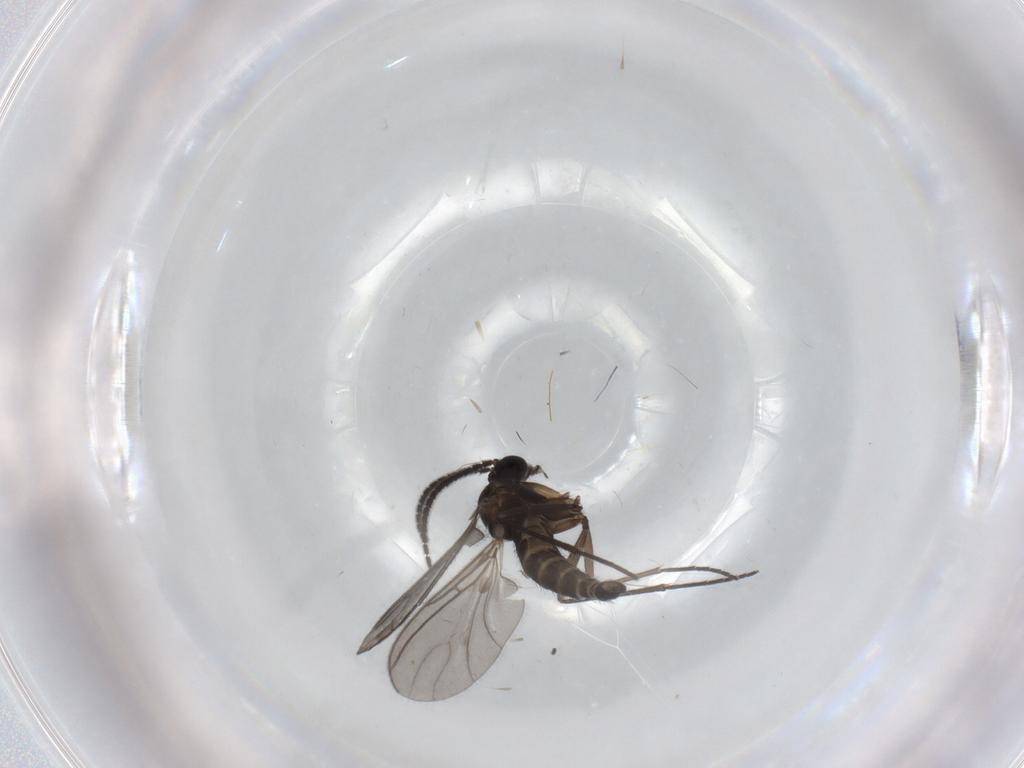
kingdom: Animalia
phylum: Arthropoda
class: Insecta
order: Diptera
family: Sciaridae
